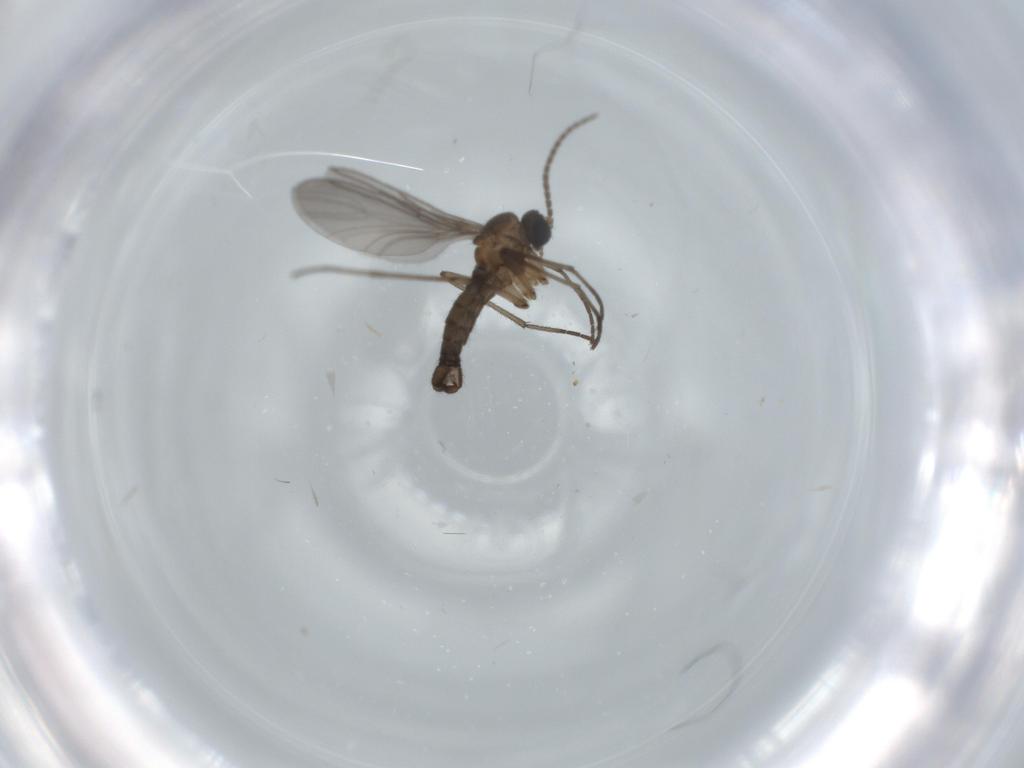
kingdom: Animalia
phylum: Arthropoda
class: Insecta
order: Diptera
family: Sciaridae
